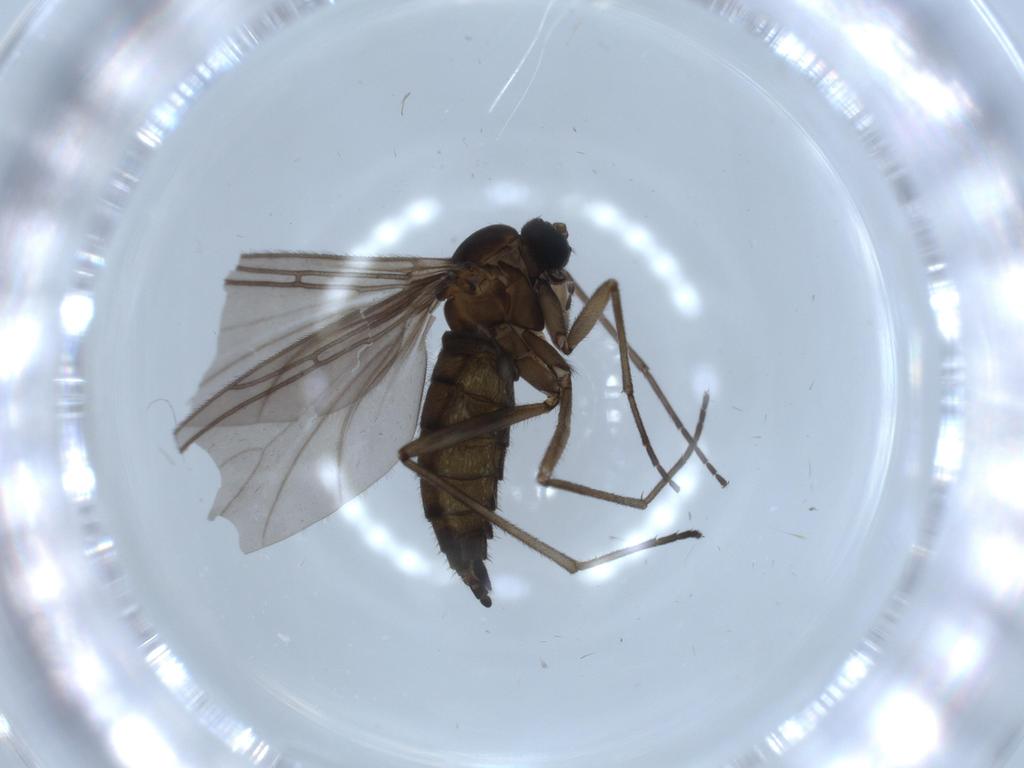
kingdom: Animalia
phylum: Arthropoda
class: Insecta
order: Diptera
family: Sciaridae
